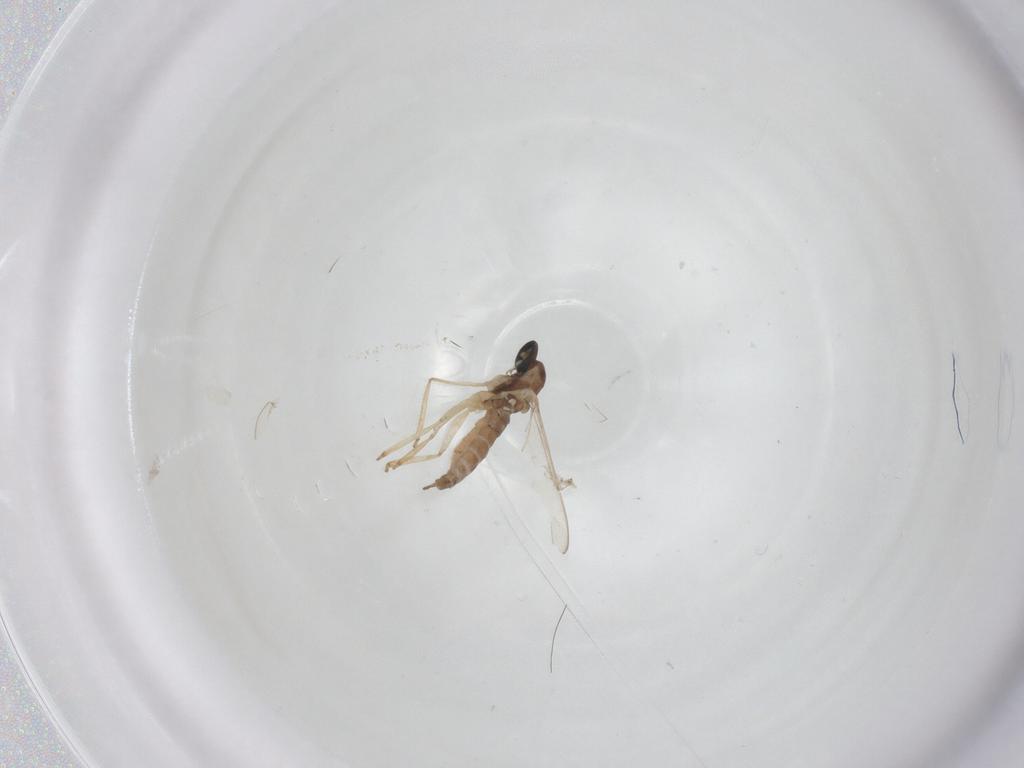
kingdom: Animalia
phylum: Arthropoda
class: Insecta
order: Diptera
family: Cecidomyiidae
